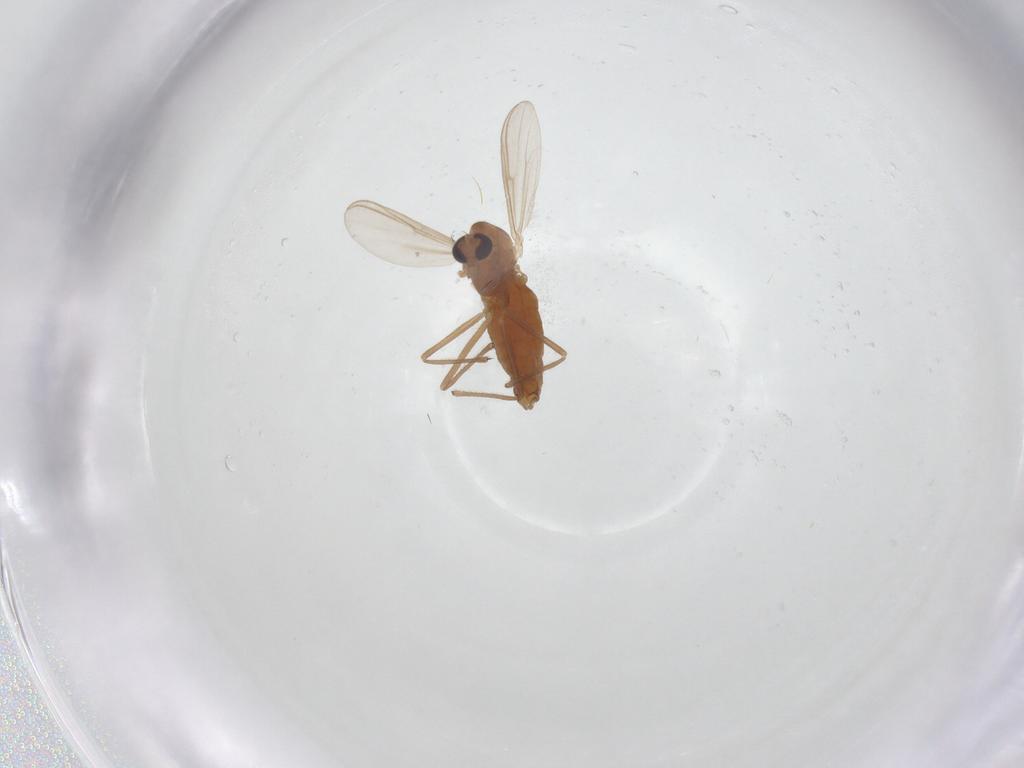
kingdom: Animalia
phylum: Arthropoda
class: Insecta
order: Diptera
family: Chironomidae
